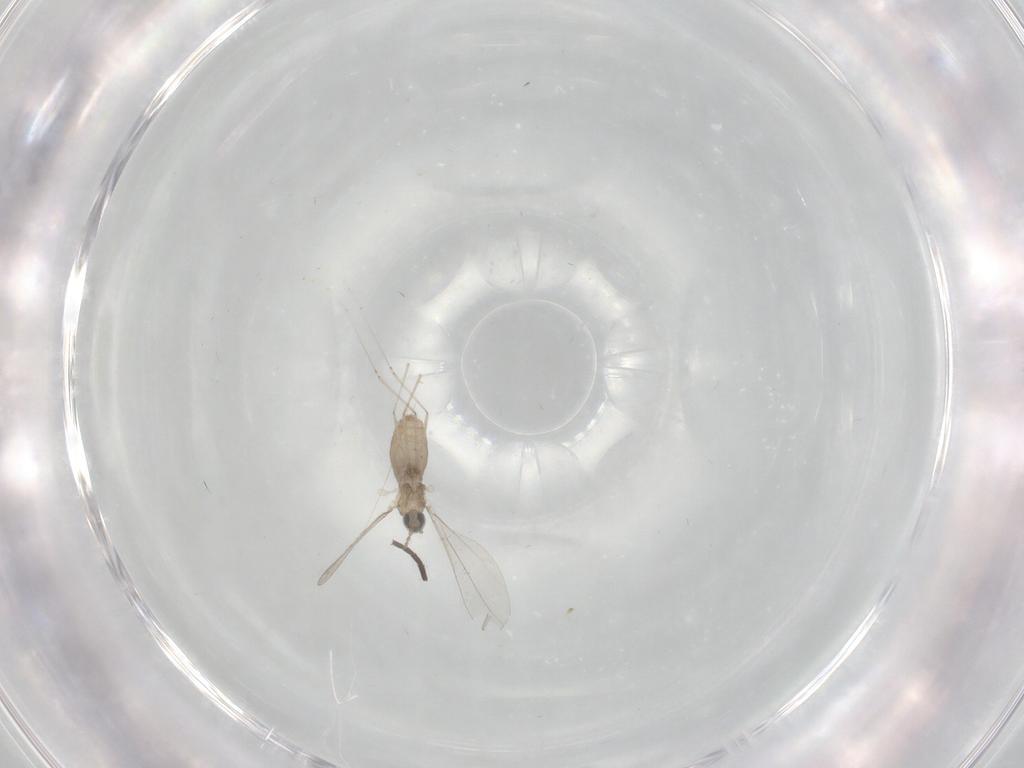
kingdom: Animalia
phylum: Arthropoda
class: Insecta
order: Diptera
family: Sciaridae
